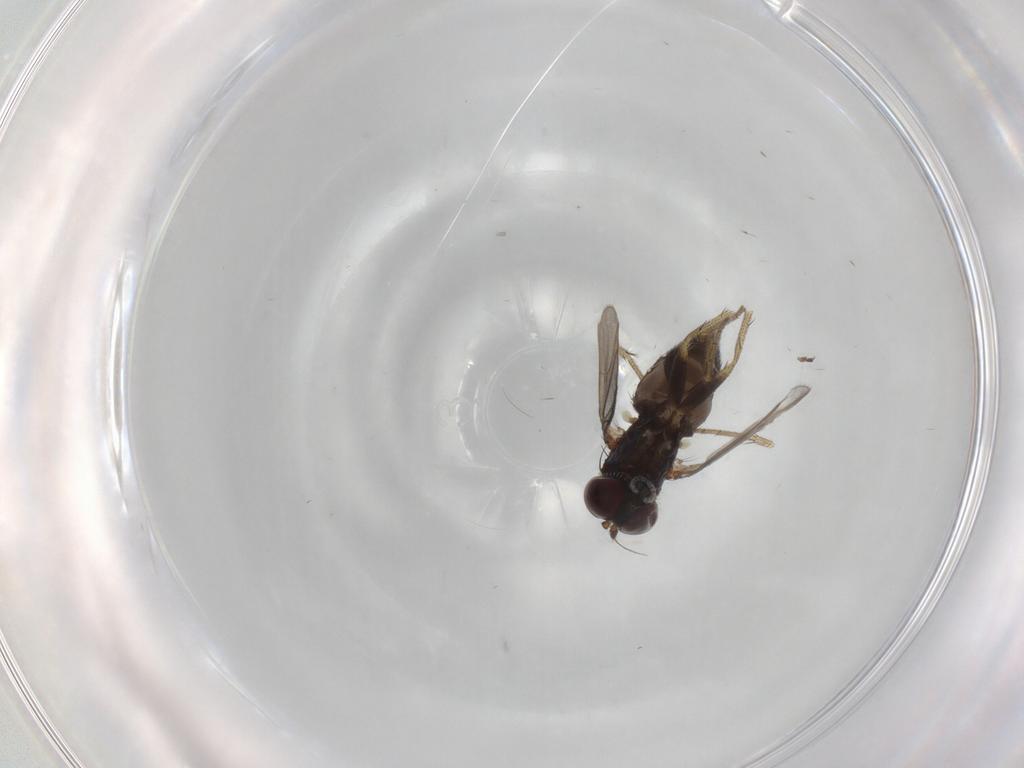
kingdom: Animalia
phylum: Arthropoda
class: Insecta
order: Diptera
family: Dolichopodidae
